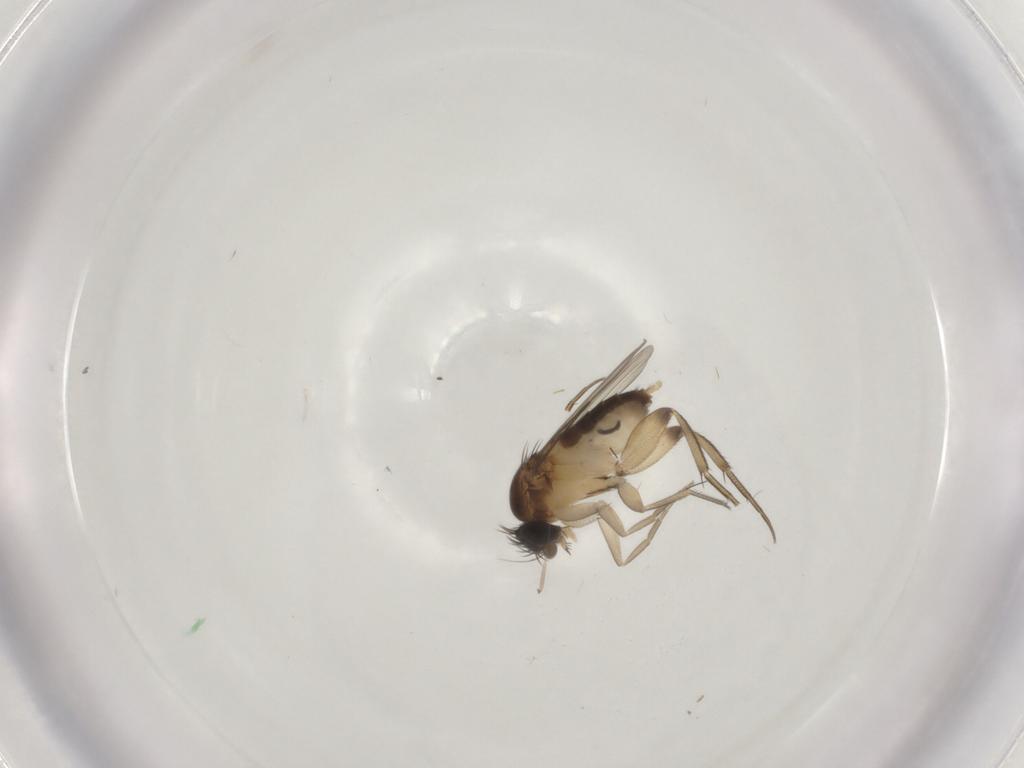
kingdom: Animalia
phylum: Arthropoda
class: Insecta
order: Diptera
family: Phoridae
